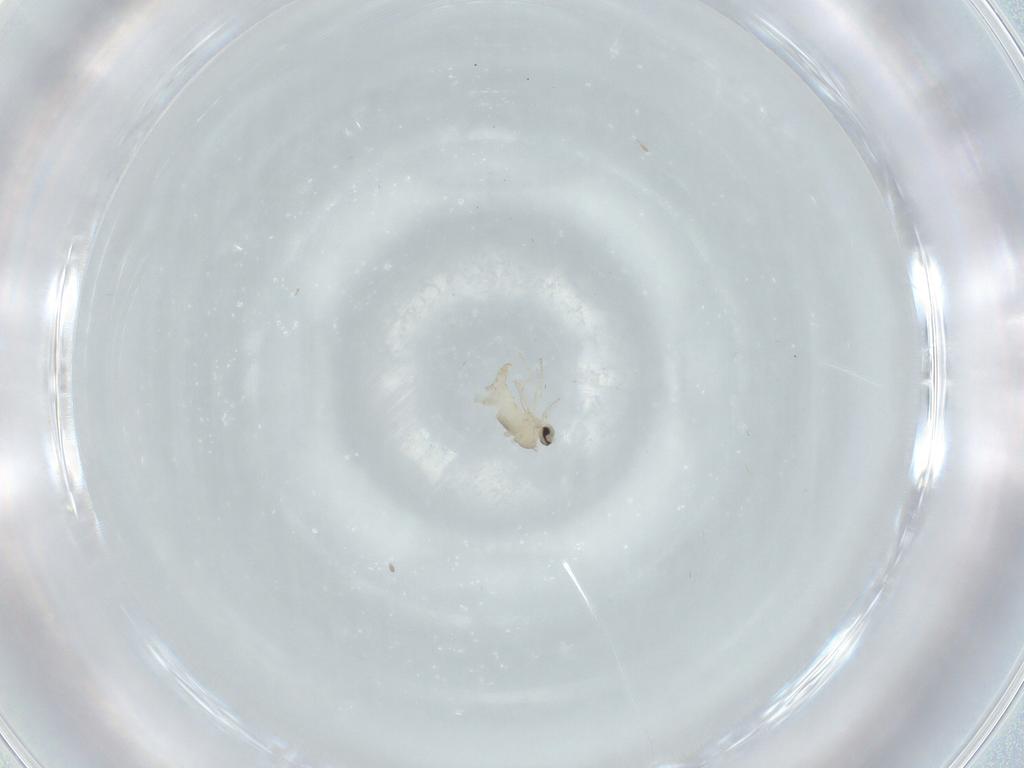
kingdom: Animalia
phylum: Arthropoda
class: Insecta
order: Diptera
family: Cecidomyiidae
